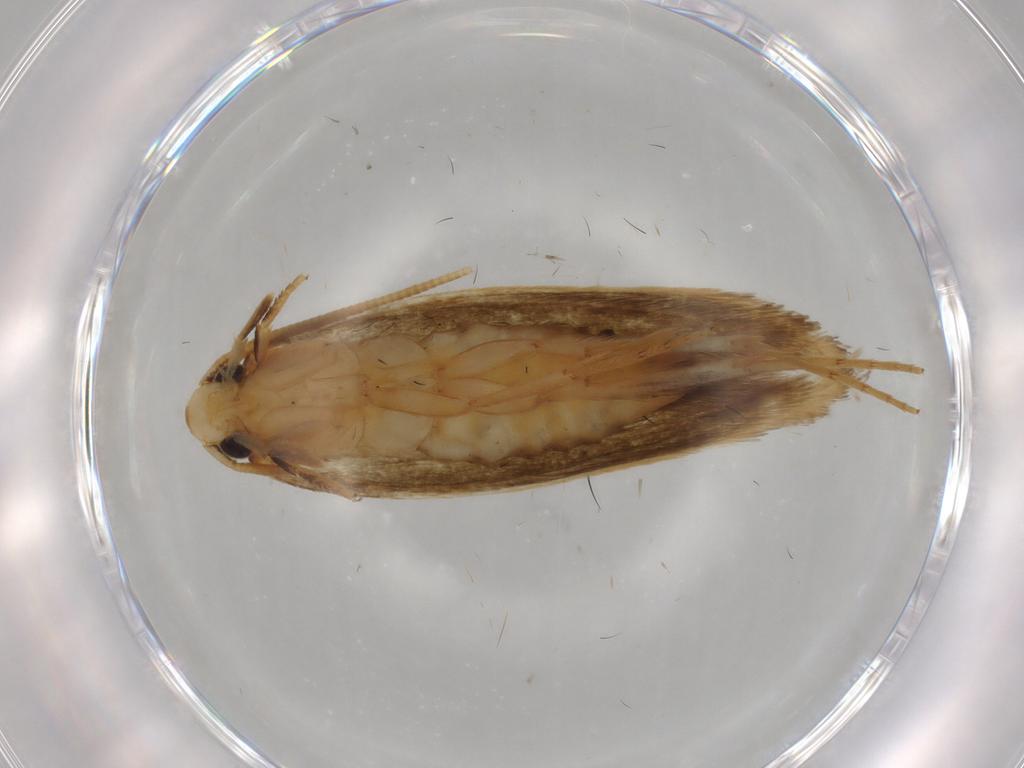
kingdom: Animalia
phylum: Arthropoda
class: Insecta
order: Lepidoptera
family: Tineidae
